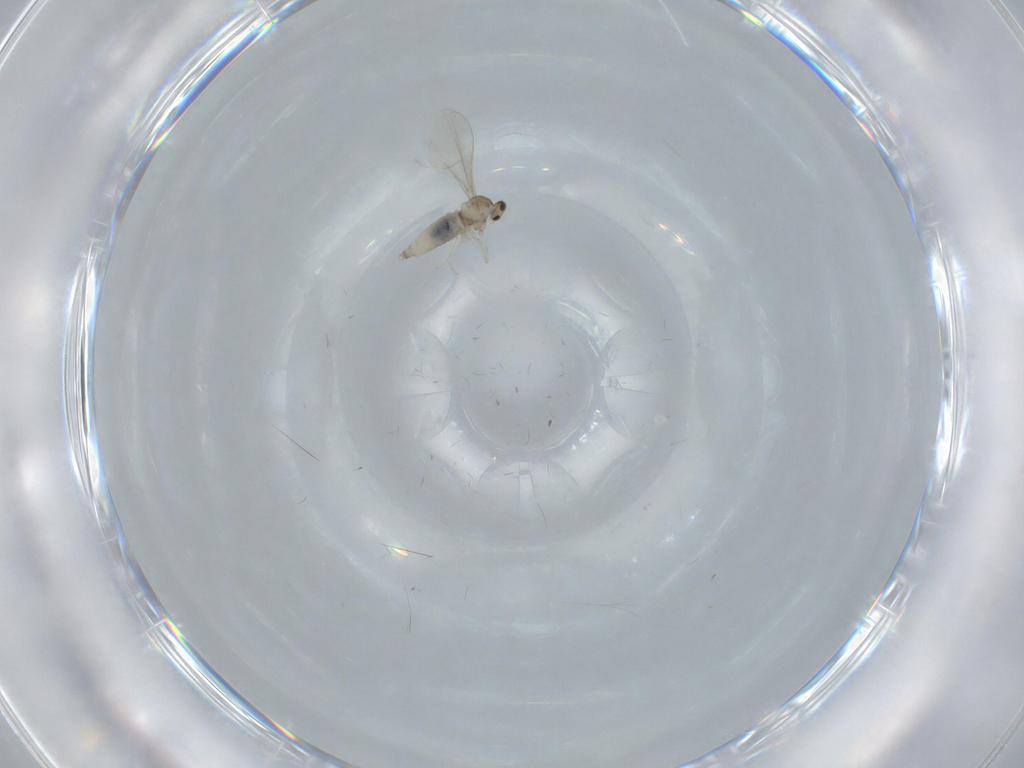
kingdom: Animalia
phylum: Arthropoda
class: Insecta
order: Diptera
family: Cecidomyiidae
